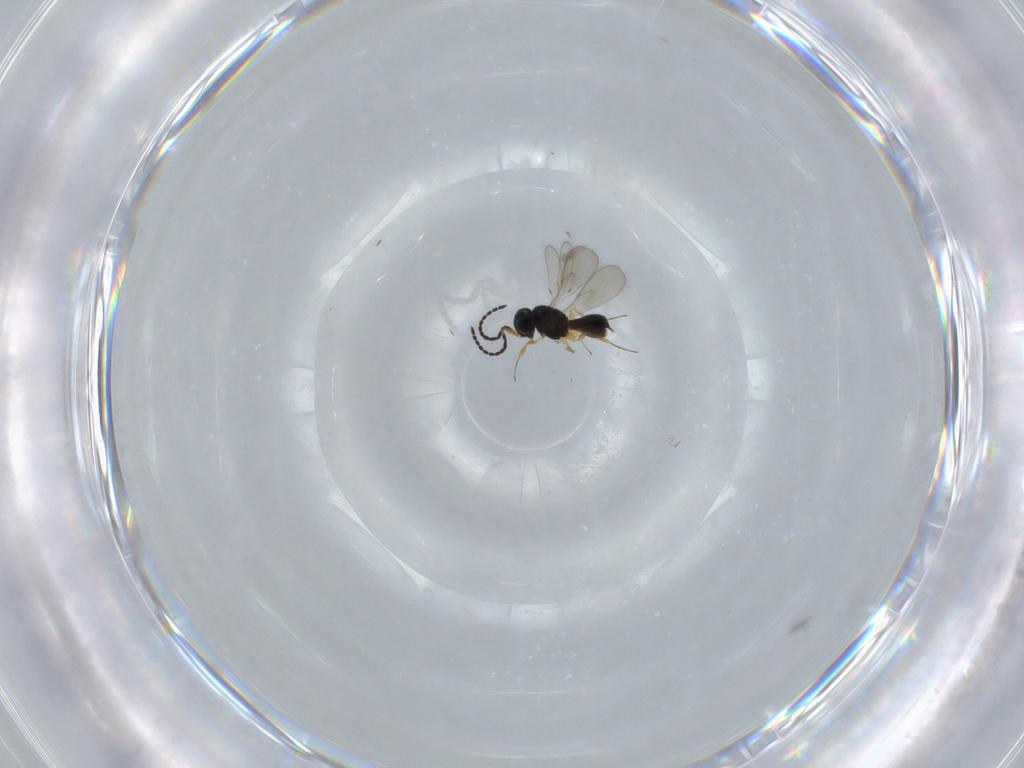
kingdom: Animalia
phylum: Arthropoda
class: Insecta
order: Hymenoptera
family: Scelionidae
